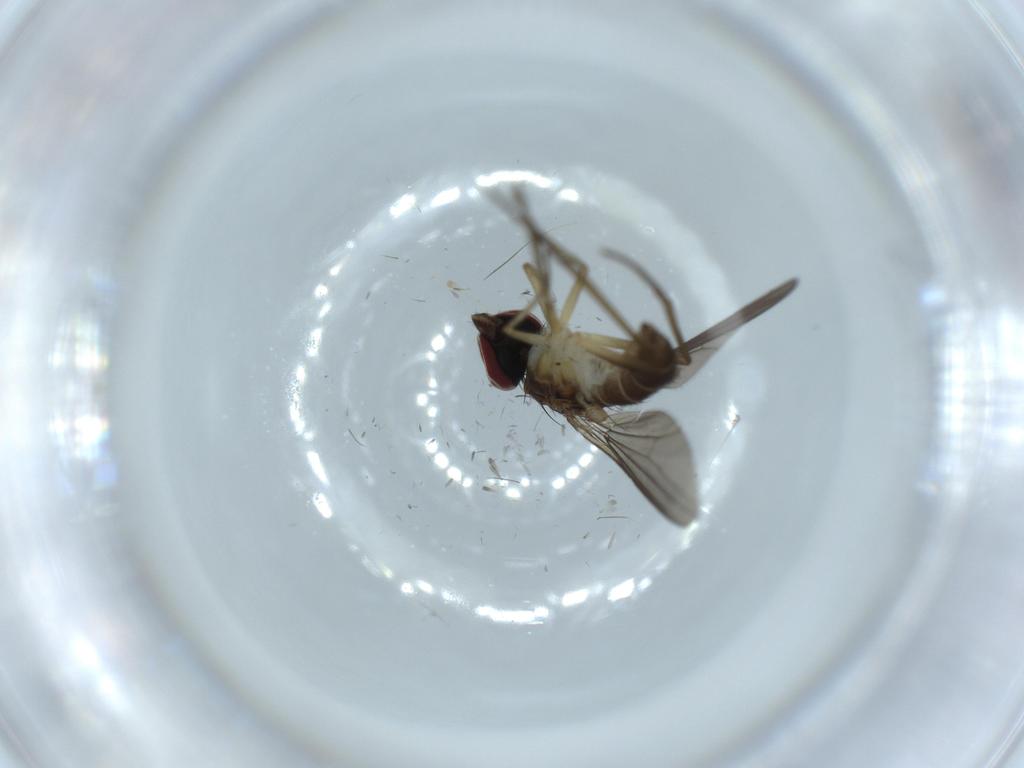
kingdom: Animalia
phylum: Arthropoda
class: Insecta
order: Diptera
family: Dolichopodidae
